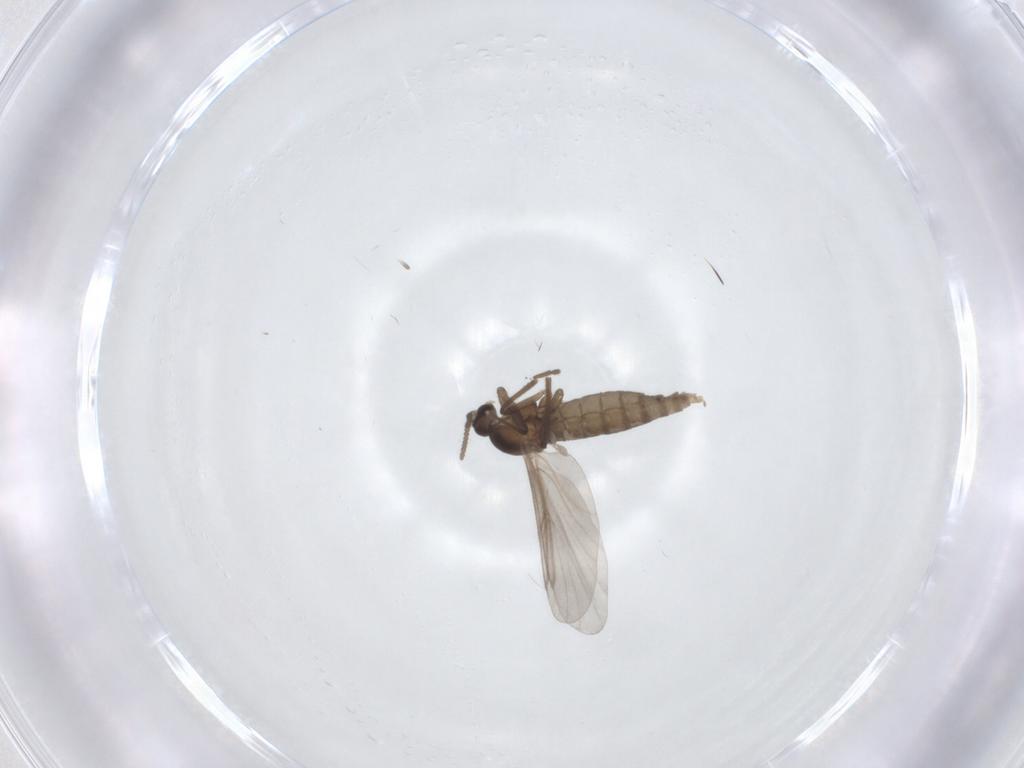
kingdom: Animalia
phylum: Arthropoda
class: Insecta
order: Diptera
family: Cecidomyiidae
